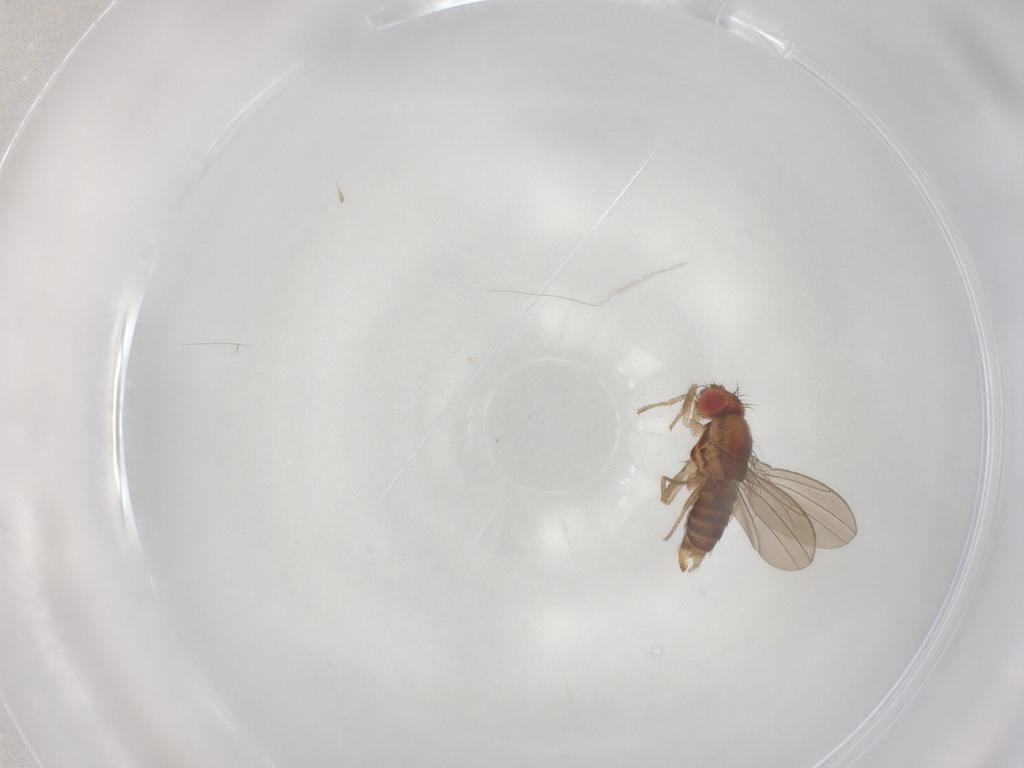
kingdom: Animalia
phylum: Arthropoda
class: Insecta
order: Diptera
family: Drosophilidae
